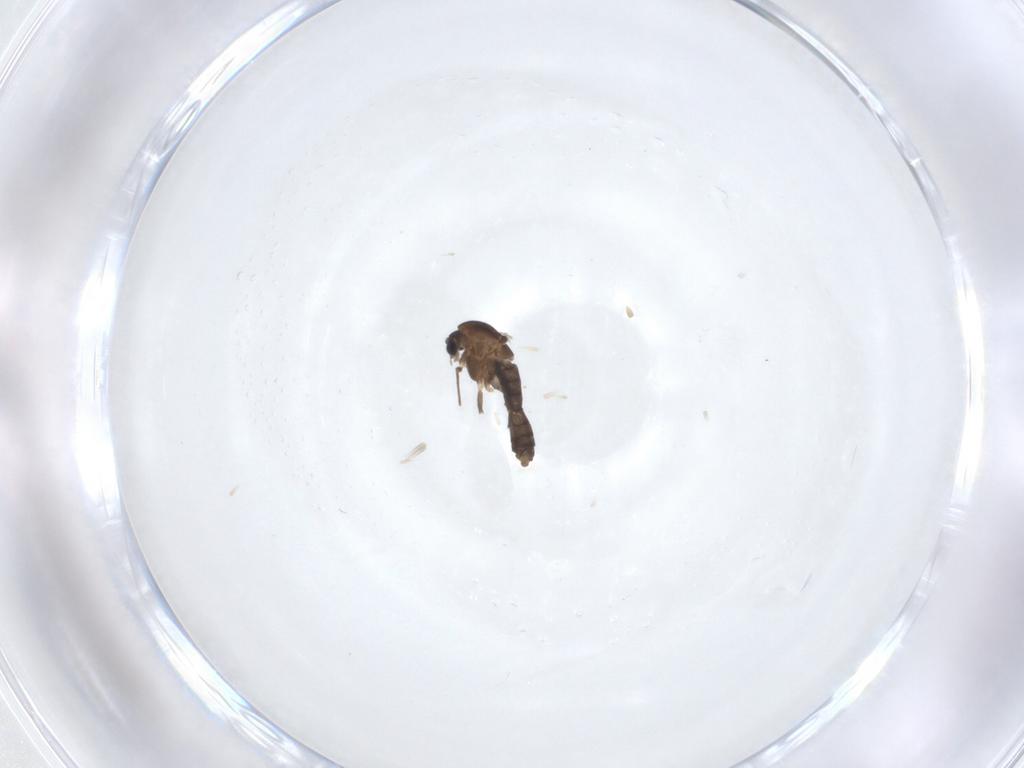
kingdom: Animalia
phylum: Arthropoda
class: Insecta
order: Diptera
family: Chironomidae
